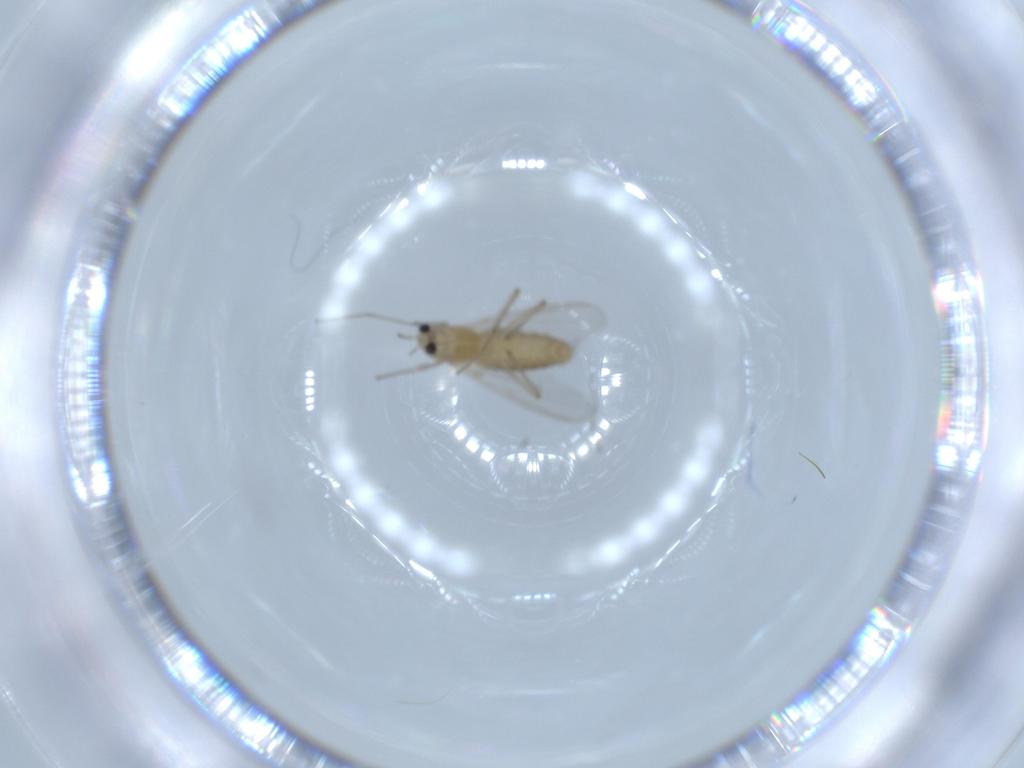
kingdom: Animalia
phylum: Arthropoda
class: Insecta
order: Diptera
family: Chironomidae
